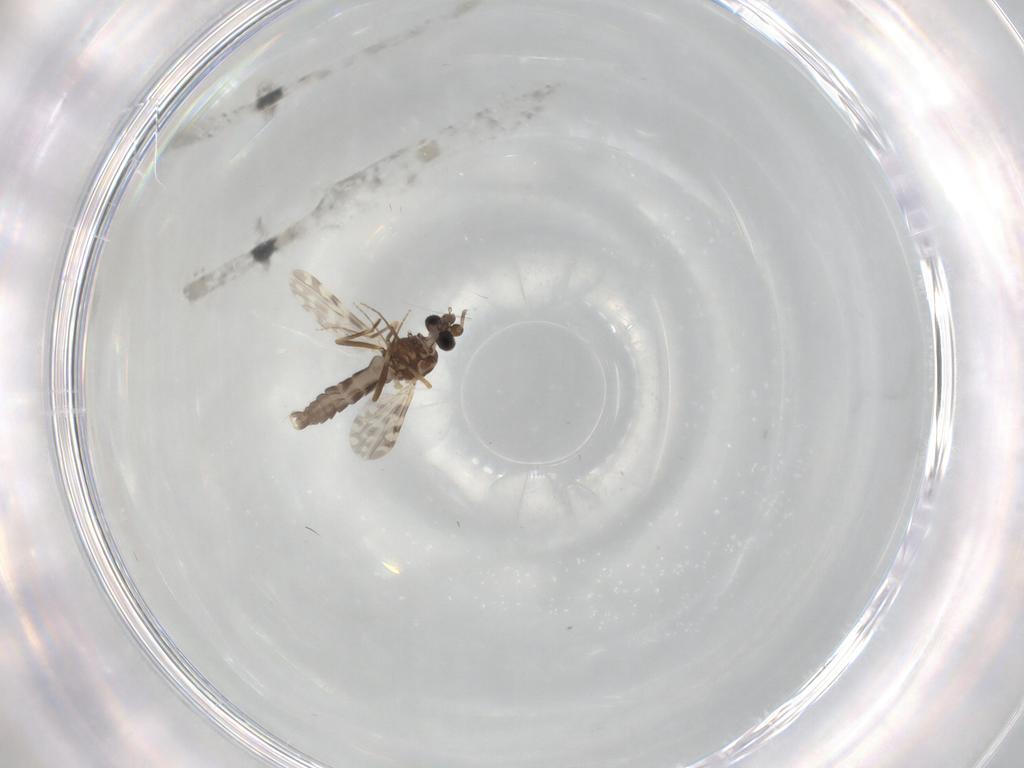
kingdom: Animalia
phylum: Arthropoda
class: Insecta
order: Diptera
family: Ceratopogonidae
